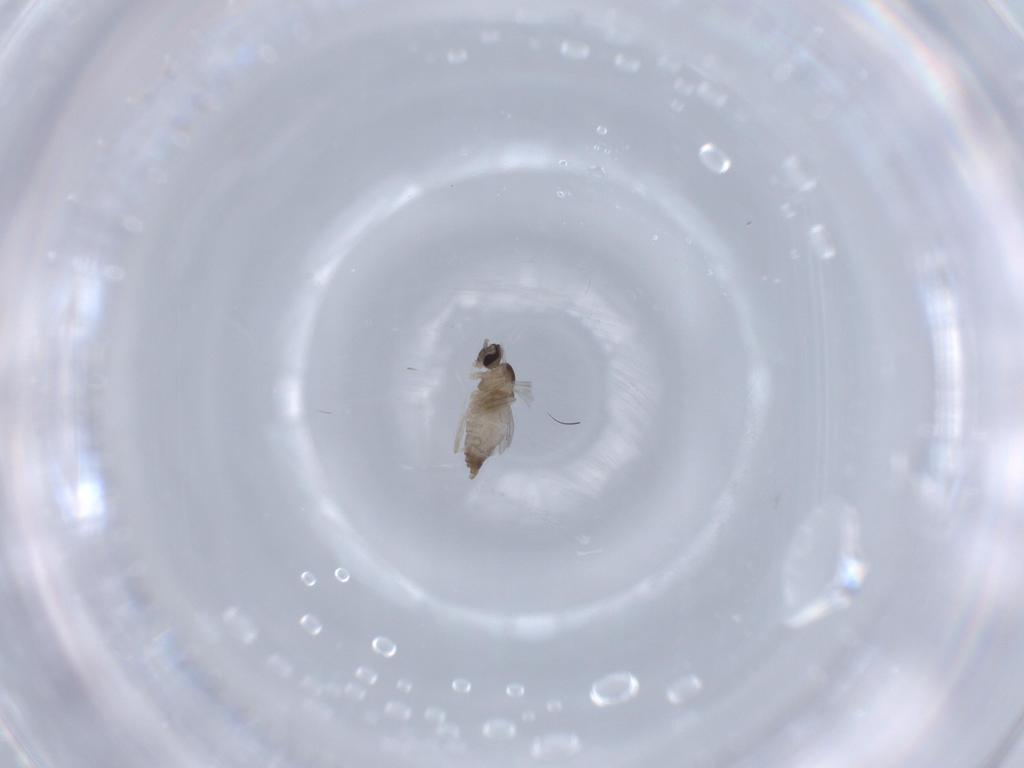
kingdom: Animalia
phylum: Arthropoda
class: Insecta
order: Diptera
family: Cecidomyiidae
